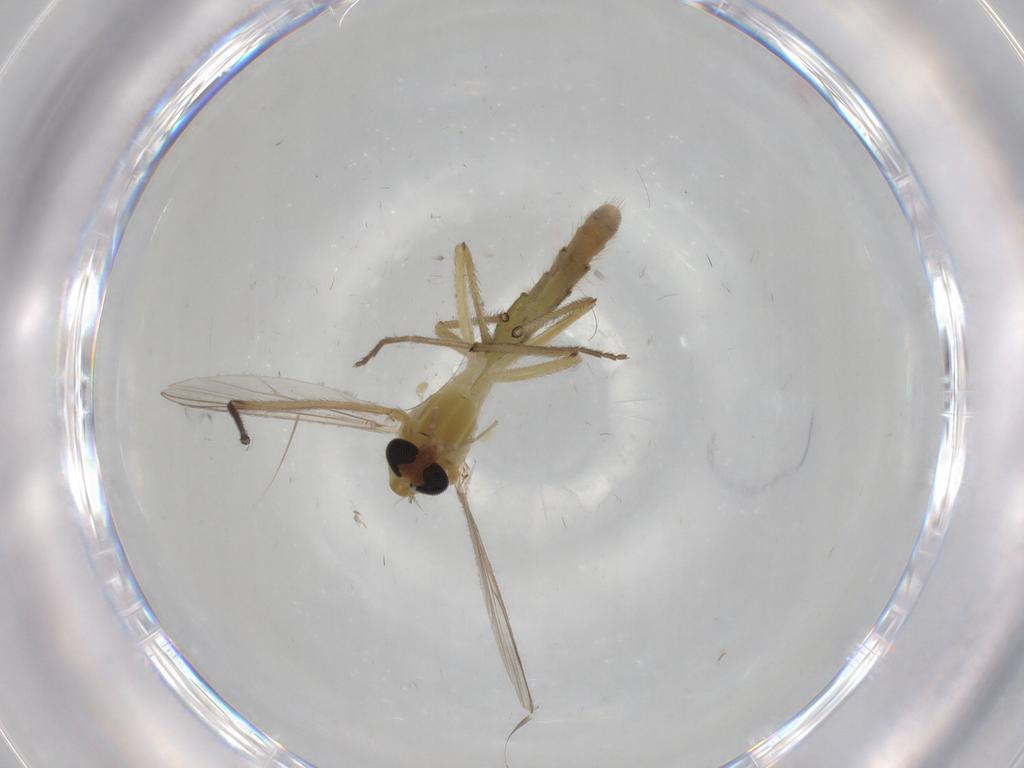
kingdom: Animalia
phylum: Arthropoda
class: Insecta
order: Diptera
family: Chironomidae
